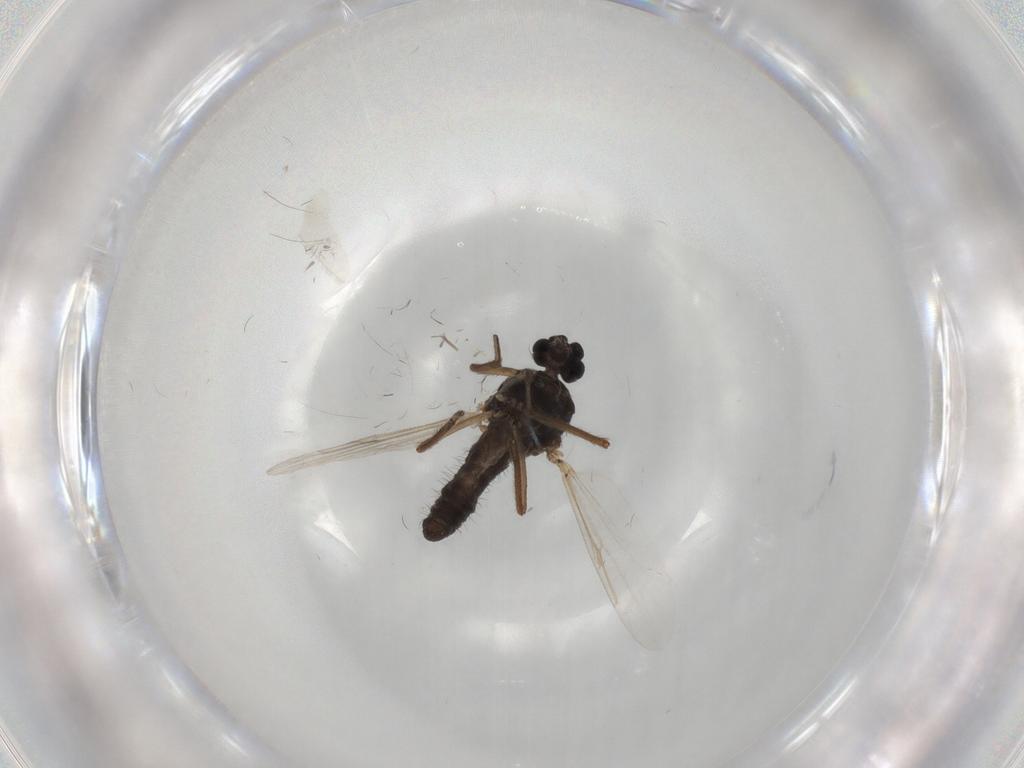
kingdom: Animalia
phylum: Arthropoda
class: Insecta
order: Diptera
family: Ceratopogonidae
